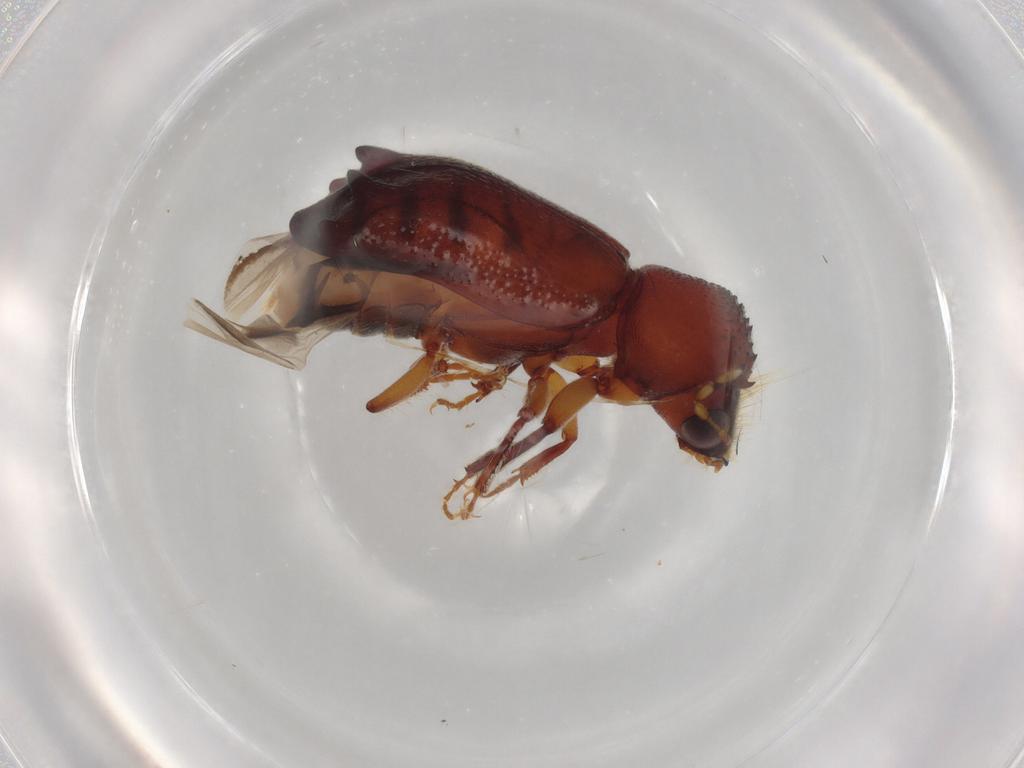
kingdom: Animalia
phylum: Arthropoda
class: Insecta
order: Coleoptera
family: Bostrichidae
